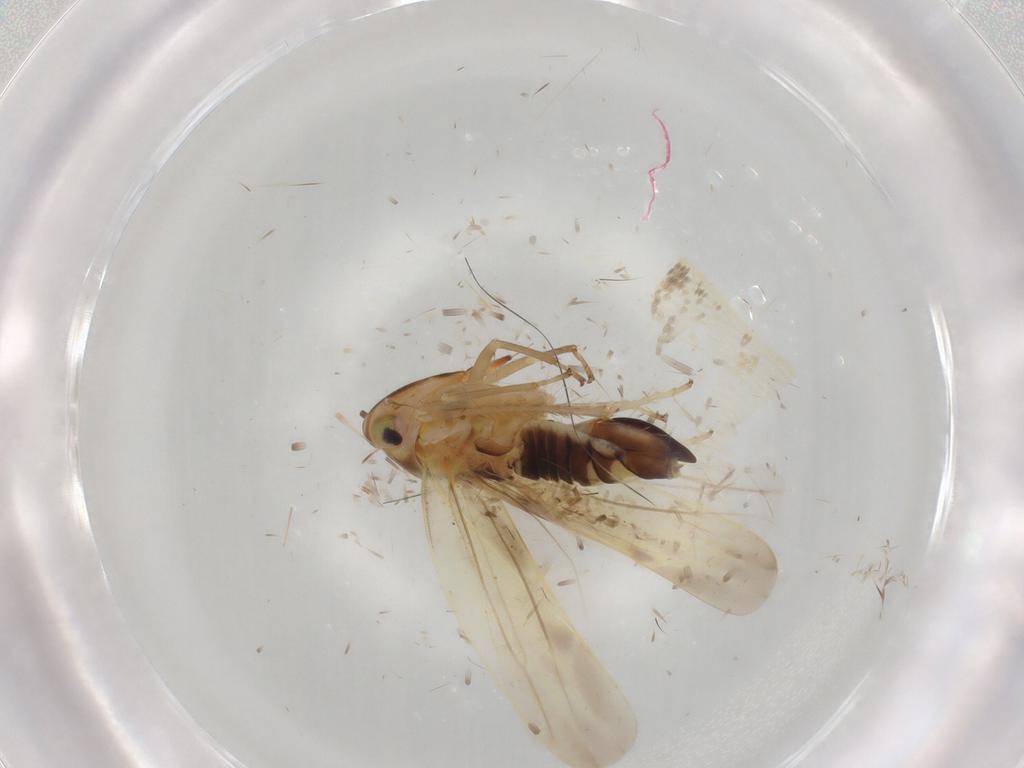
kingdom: Animalia
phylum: Arthropoda
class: Insecta
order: Hemiptera
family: Cicadellidae
